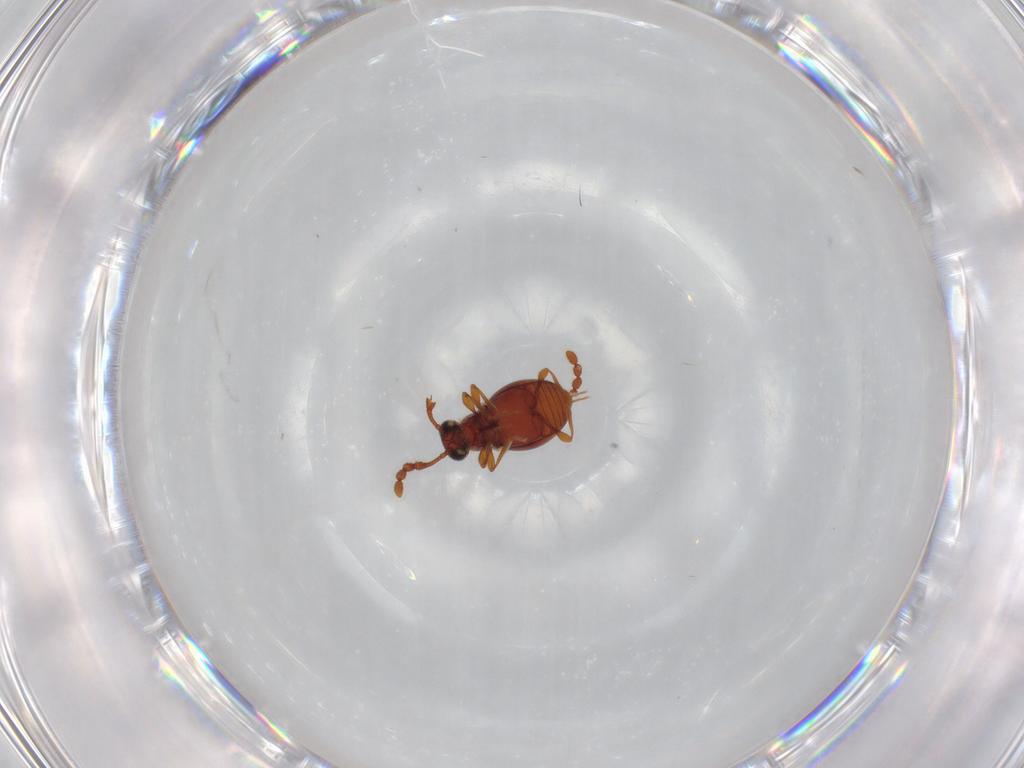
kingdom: Animalia
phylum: Arthropoda
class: Insecta
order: Coleoptera
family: Staphylinidae
